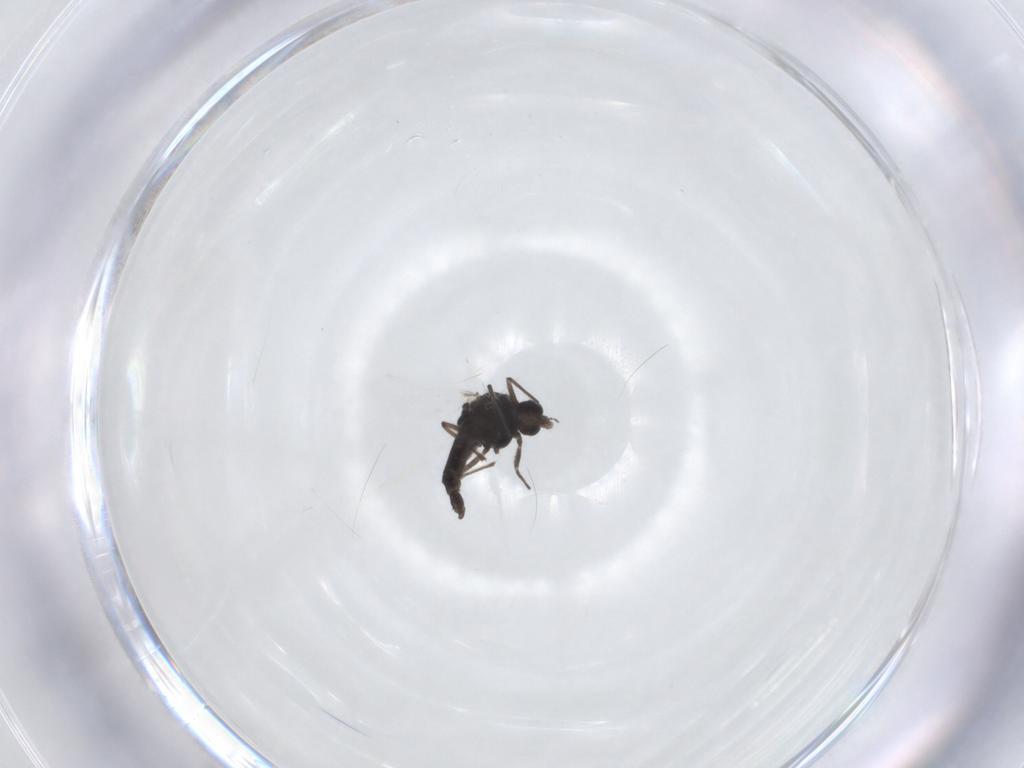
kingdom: Animalia
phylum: Arthropoda
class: Insecta
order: Diptera
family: Cecidomyiidae
